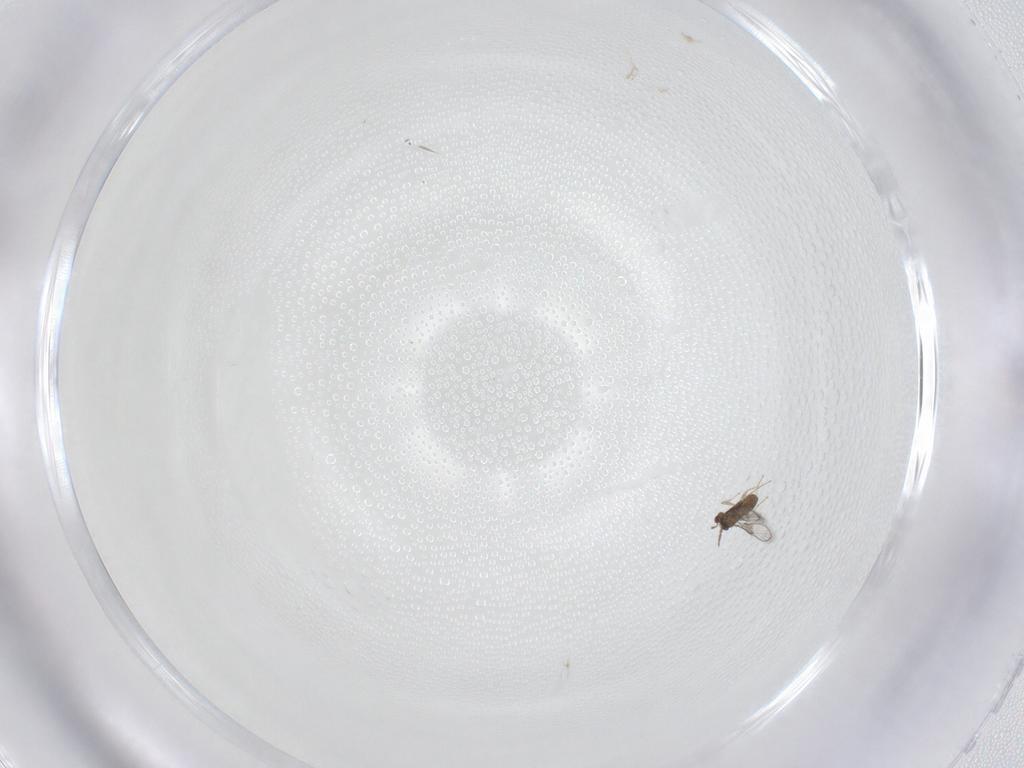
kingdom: Animalia
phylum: Arthropoda
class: Insecta
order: Hymenoptera
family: Trichogrammatidae
